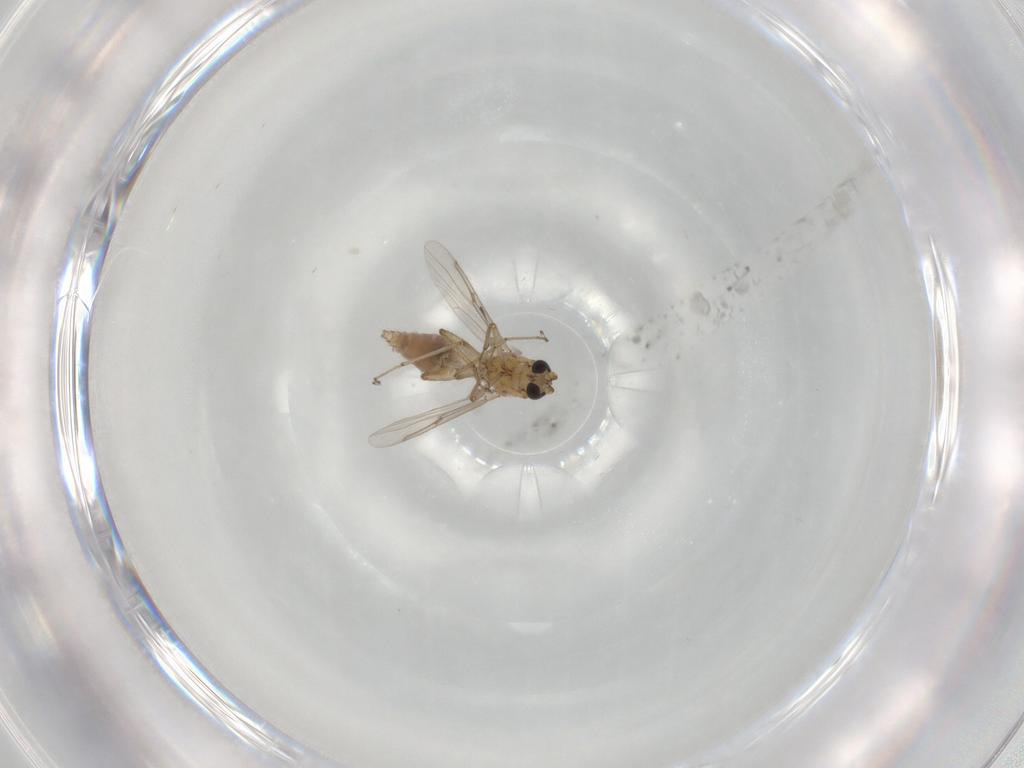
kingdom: Animalia
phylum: Arthropoda
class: Insecta
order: Diptera
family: Ceratopogonidae
